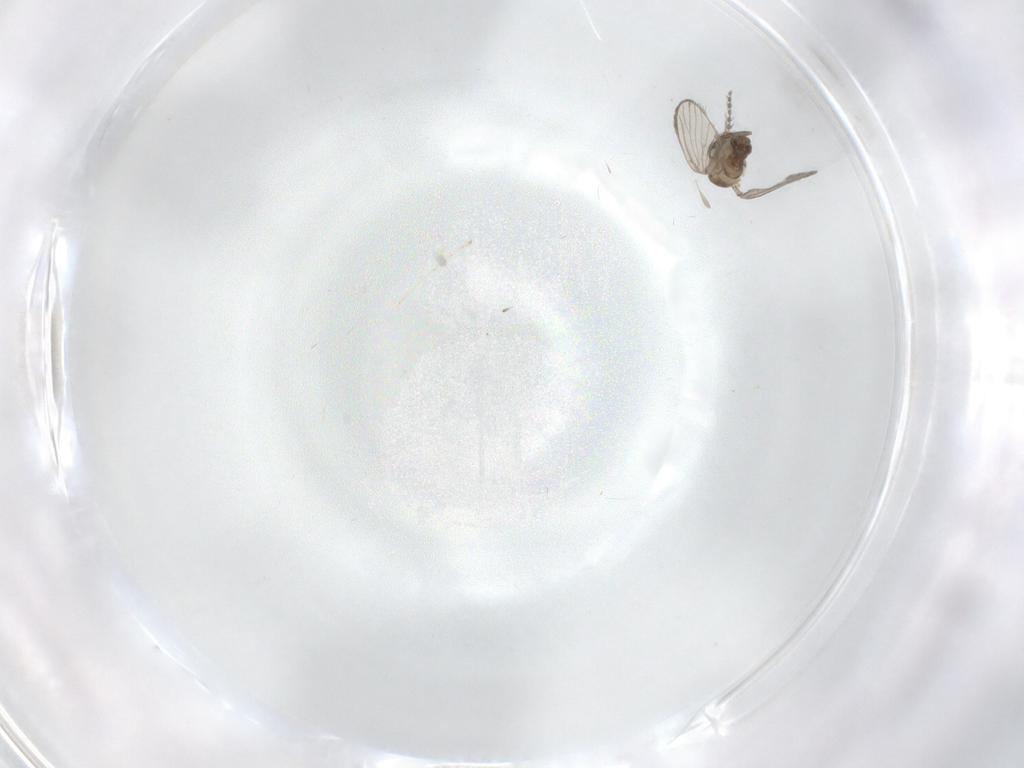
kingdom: Animalia
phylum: Arthropoda
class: Insecta
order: Diptera
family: Cecidomyiidae
